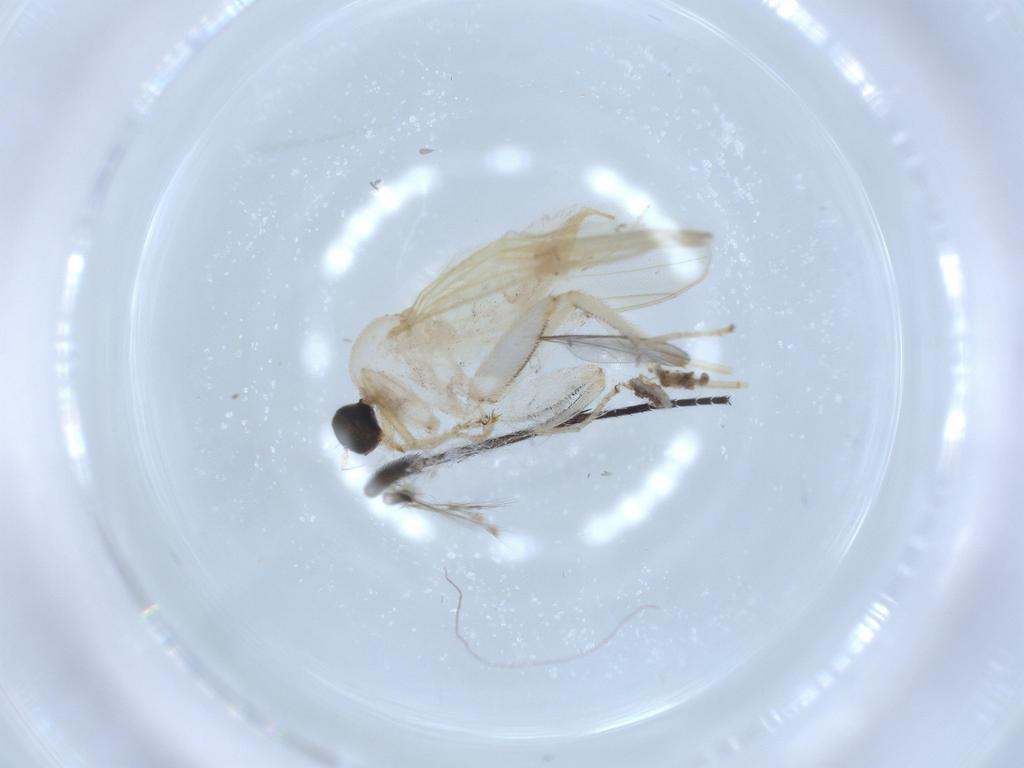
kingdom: Animalia
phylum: Arthropoda
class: Insecta
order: Diptera
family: Hybotidae
